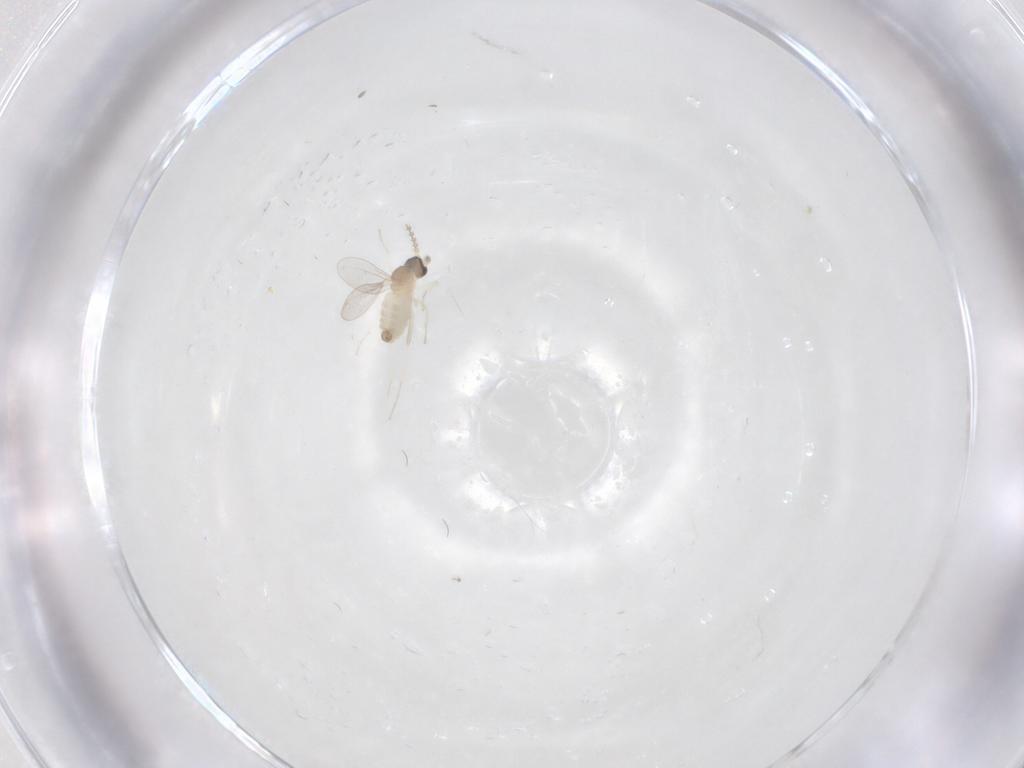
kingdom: Animalia
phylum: Arthropoda
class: Insecta
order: Diptera
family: Cecidomyiidae
